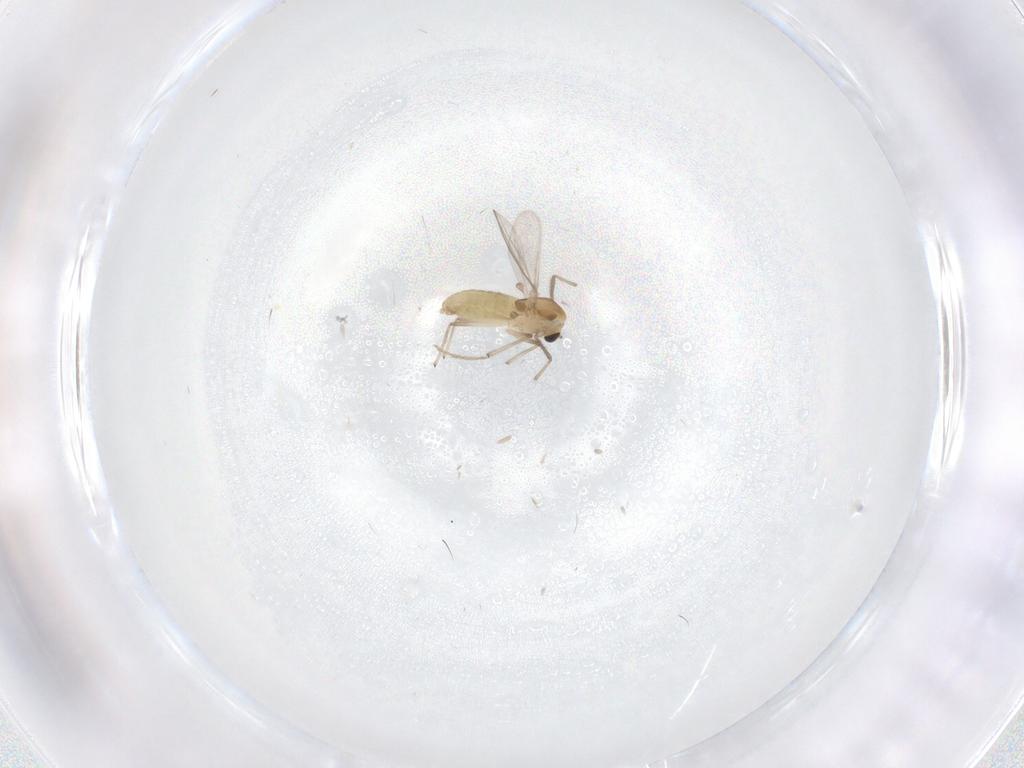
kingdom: Animalia
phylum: Arthropoda
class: Insecta
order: Diptera
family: Chironomidae
